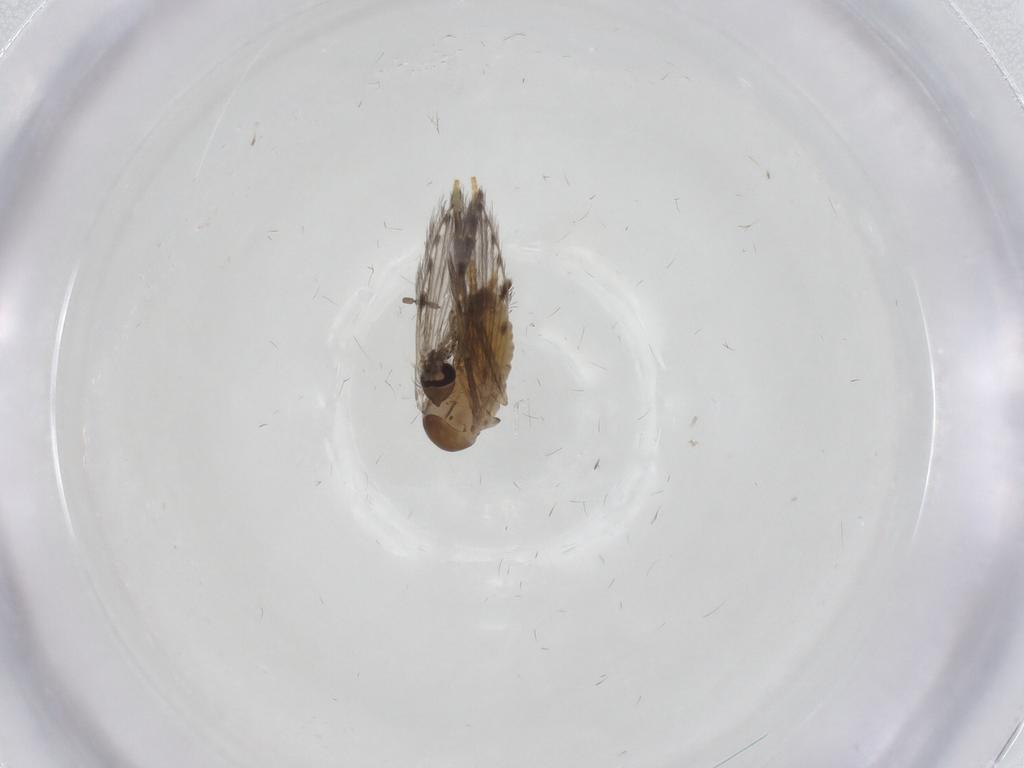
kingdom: Animalia
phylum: Arthropoda
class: Insecta
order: Diptera
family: Cecidomyiidae
